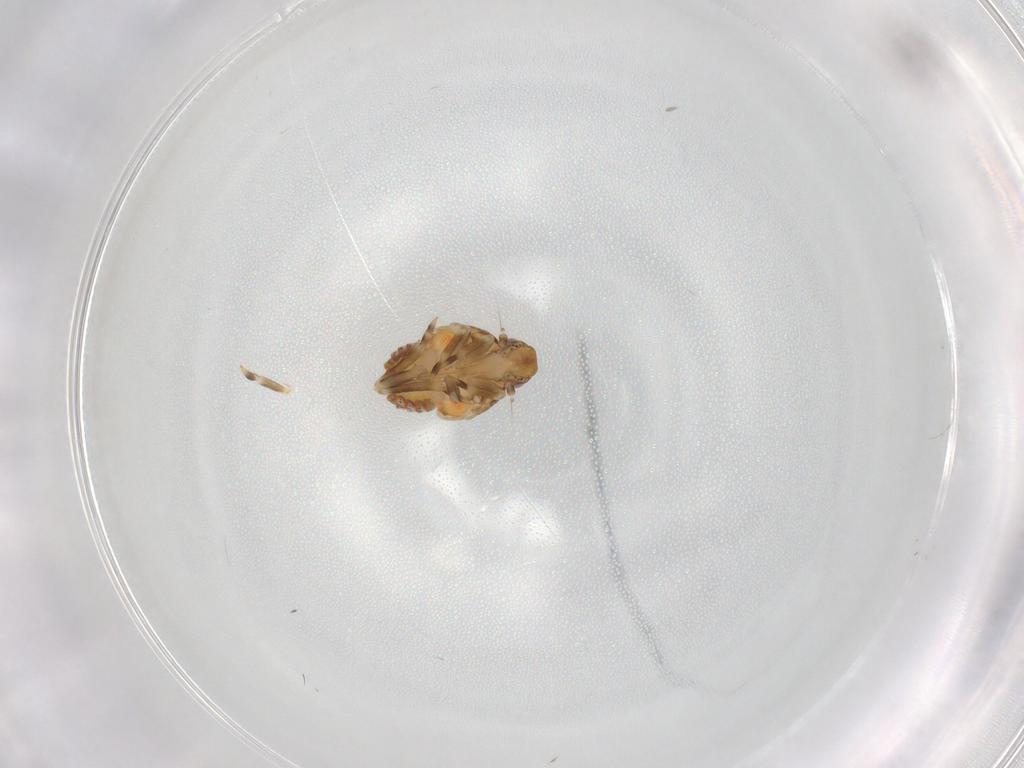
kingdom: Animalia
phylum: Arthropoda
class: Insecta
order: Hemiptera
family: Flatidae
